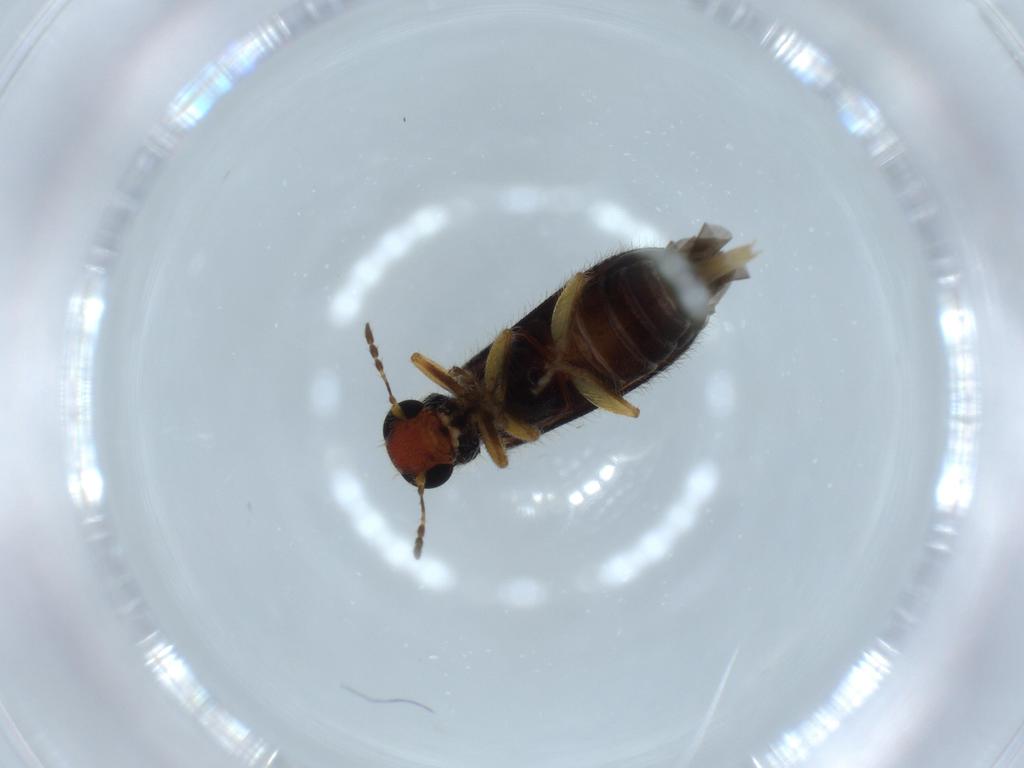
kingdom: Animalia
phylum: Arthropoda
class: Insecta
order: Coleoptera
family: Cleridae
